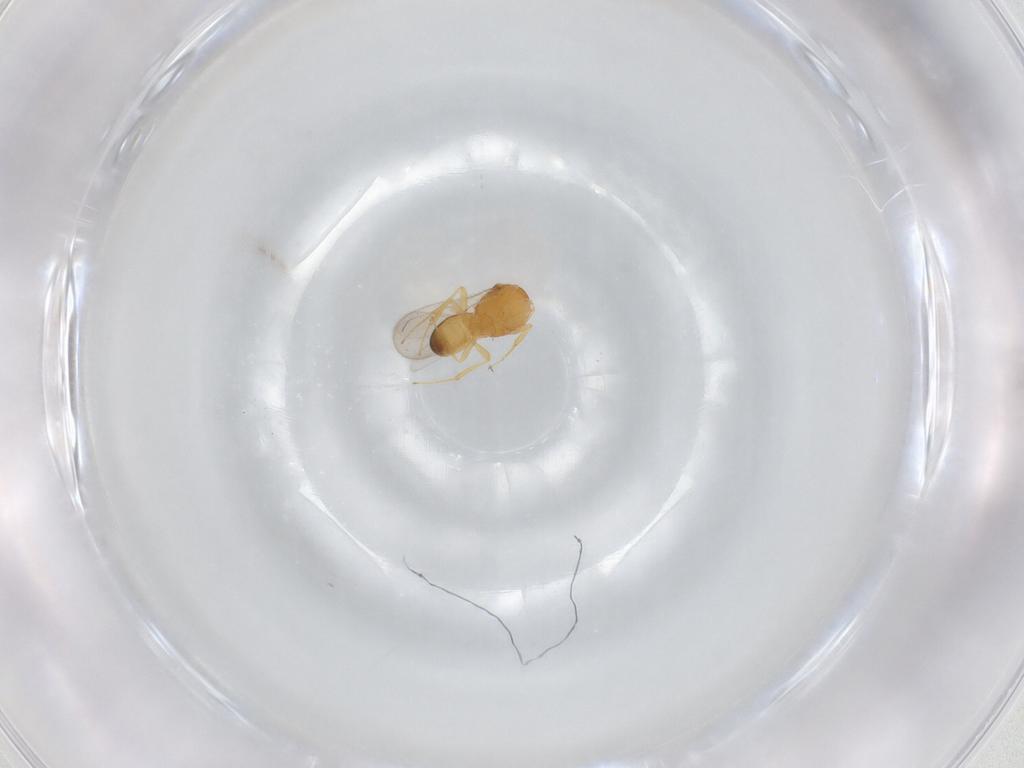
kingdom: Animalia
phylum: Arthropoda
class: Insecta
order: Hymenoptera
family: Scelionidae
